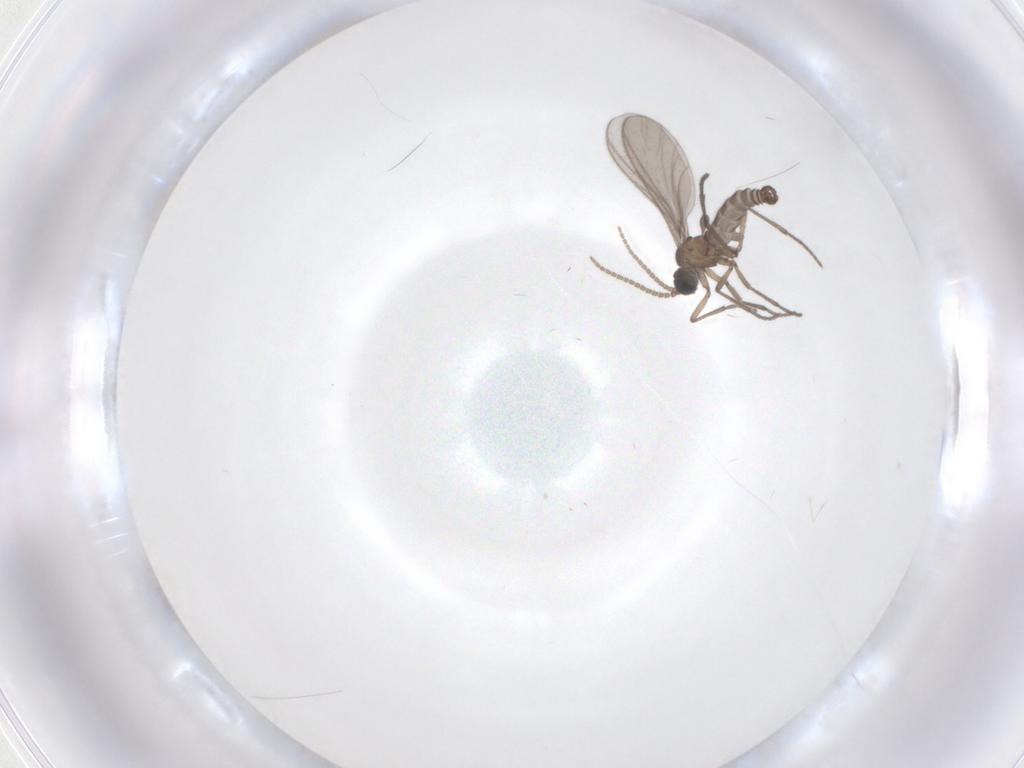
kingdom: Animalia
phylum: Arthropoda
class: Insecta
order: Diptera
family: Sciaridae
